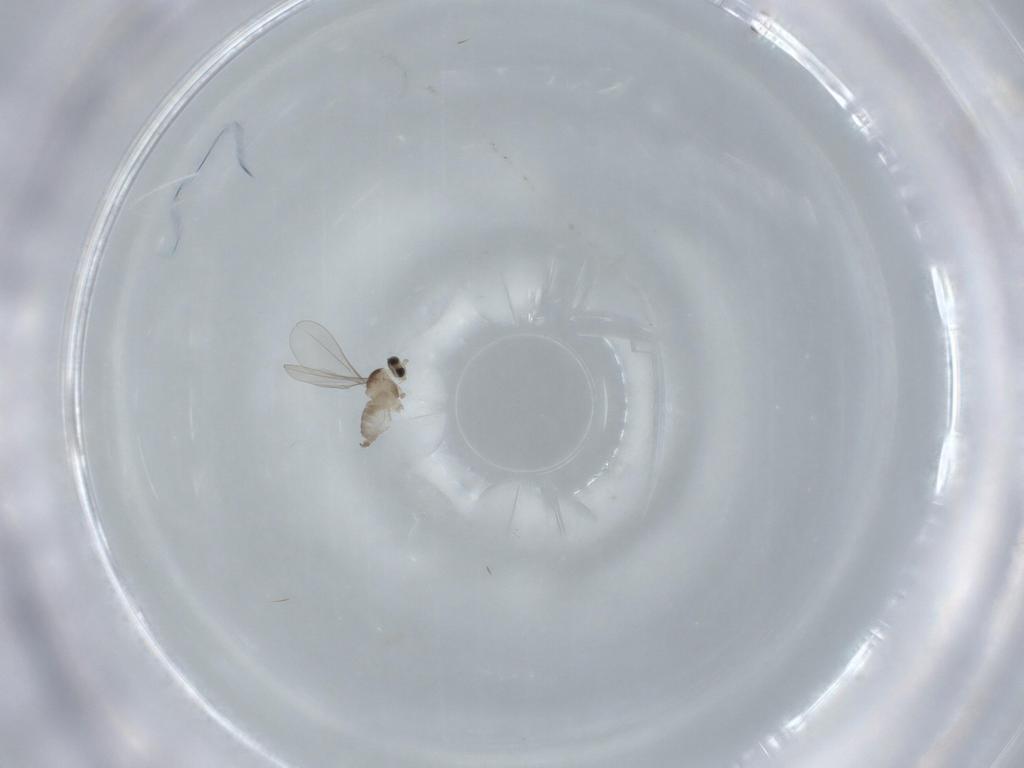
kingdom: Animalia
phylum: Arthropoda
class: Insecta
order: Diptera
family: Cecidomyiidae
